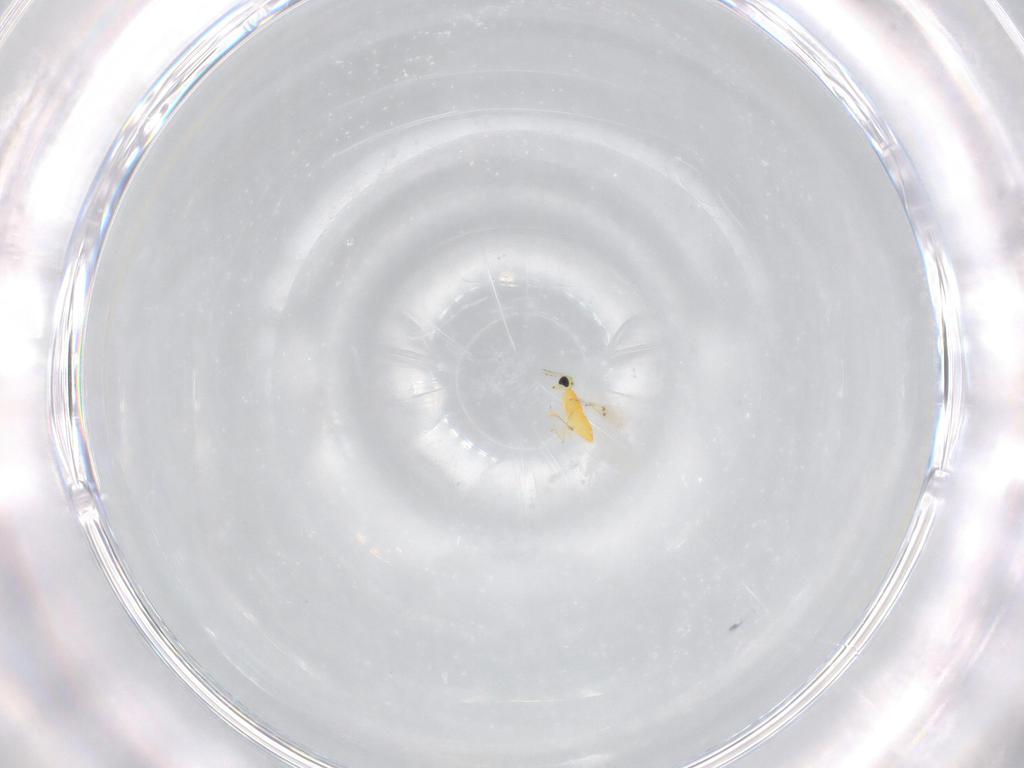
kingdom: Animalia
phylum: Arthropoda
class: Insecta
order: Hymenoptera
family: Trichogrammatidae
